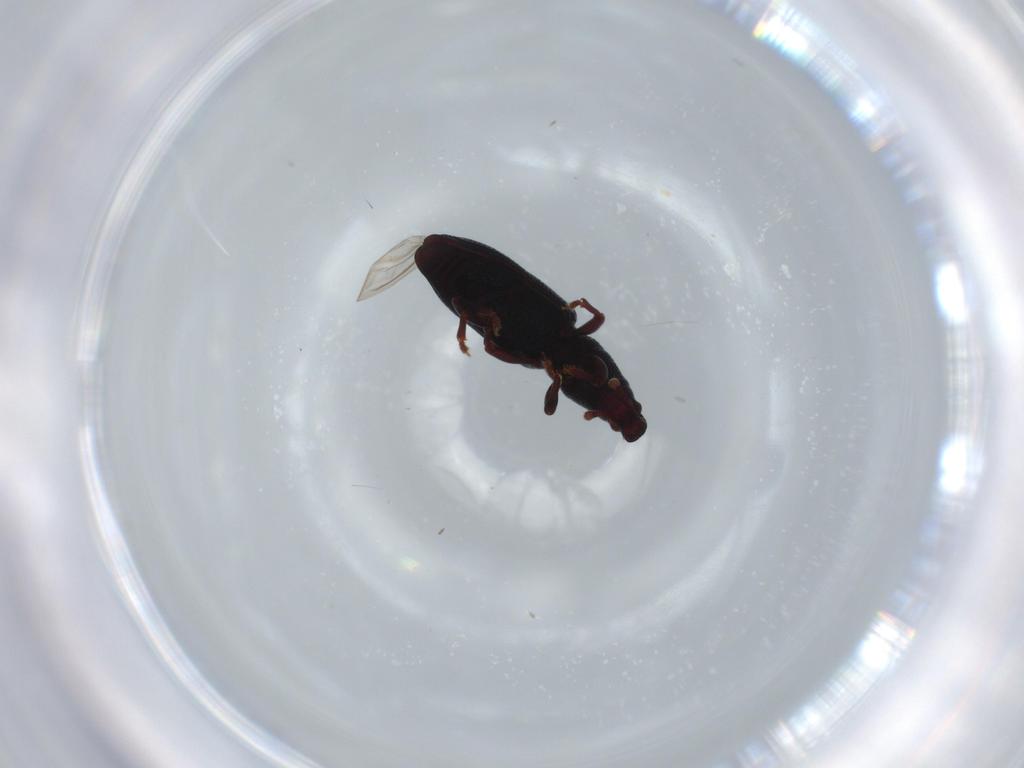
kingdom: Animalia
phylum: Arthropoda
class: Insecta
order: Coleoptera
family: Curculionidae
